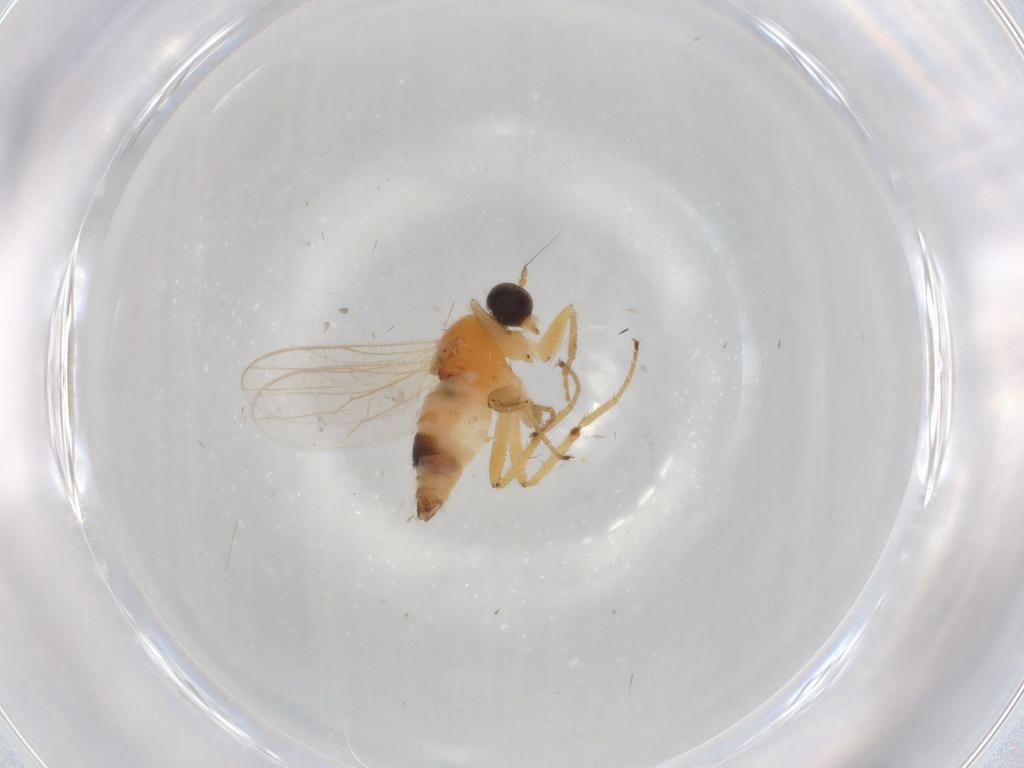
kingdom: Animalia
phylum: Arthropoda
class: Insecta
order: Diptera
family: Cecidomyiidae
